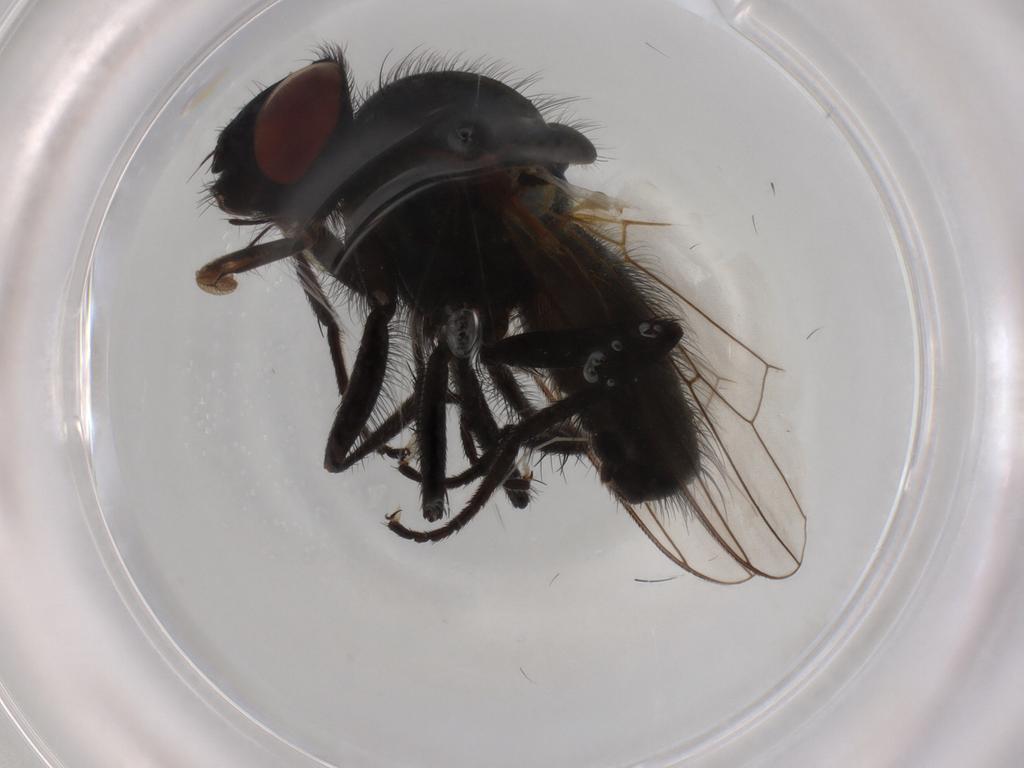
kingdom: Animalia
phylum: Arthropoda
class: Insecta
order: Diptera
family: Anthomyiidae
